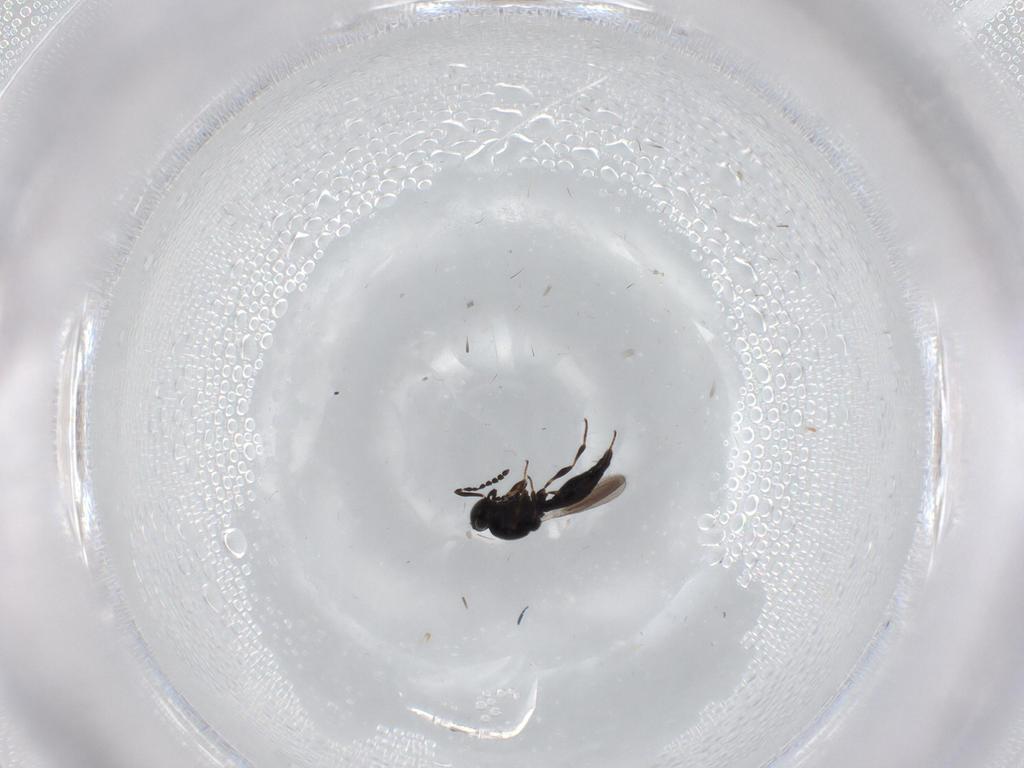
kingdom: Animalia
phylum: Arthropoda
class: Insecta
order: Hymenoptera
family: Platygastridae
